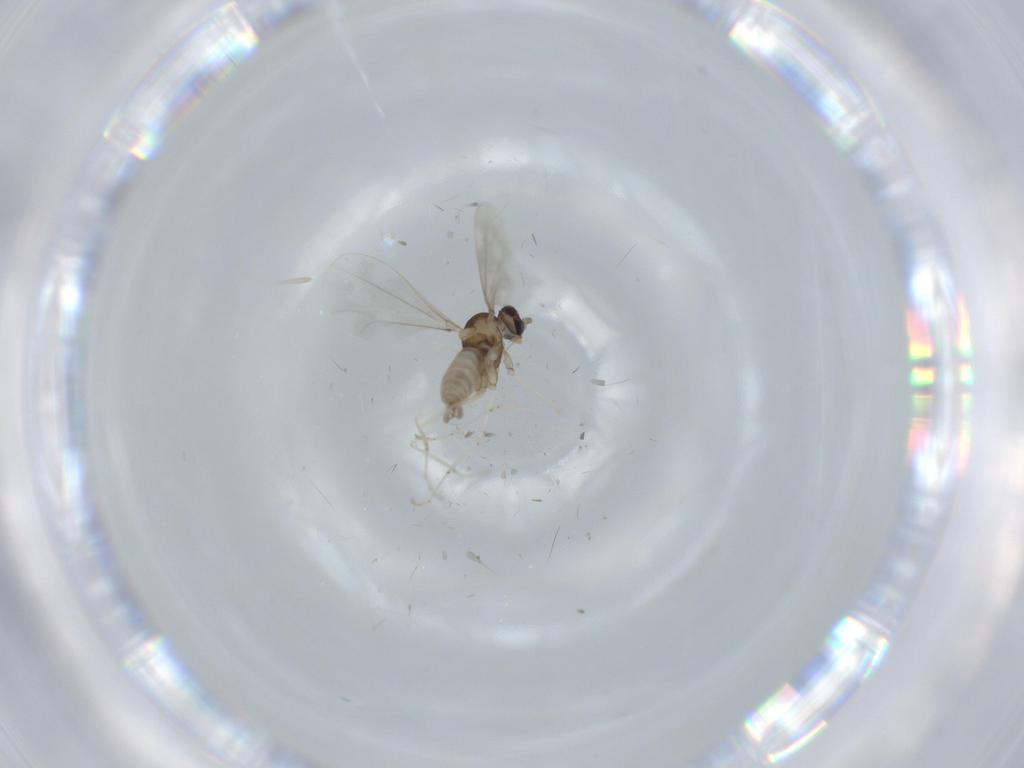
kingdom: Animalia
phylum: Arthropoda
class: Insecta
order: Diptera
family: Cecidomyiidae
